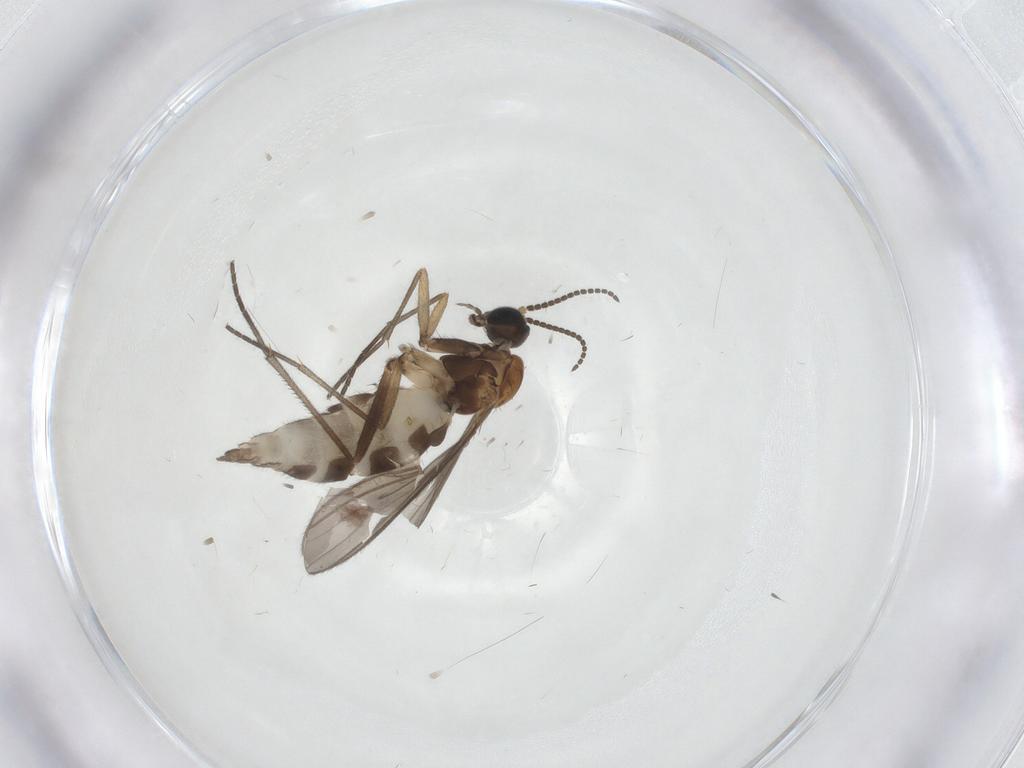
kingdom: Animalia
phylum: Arthropoda
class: Insecta
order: Diptera
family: Sciaridae
